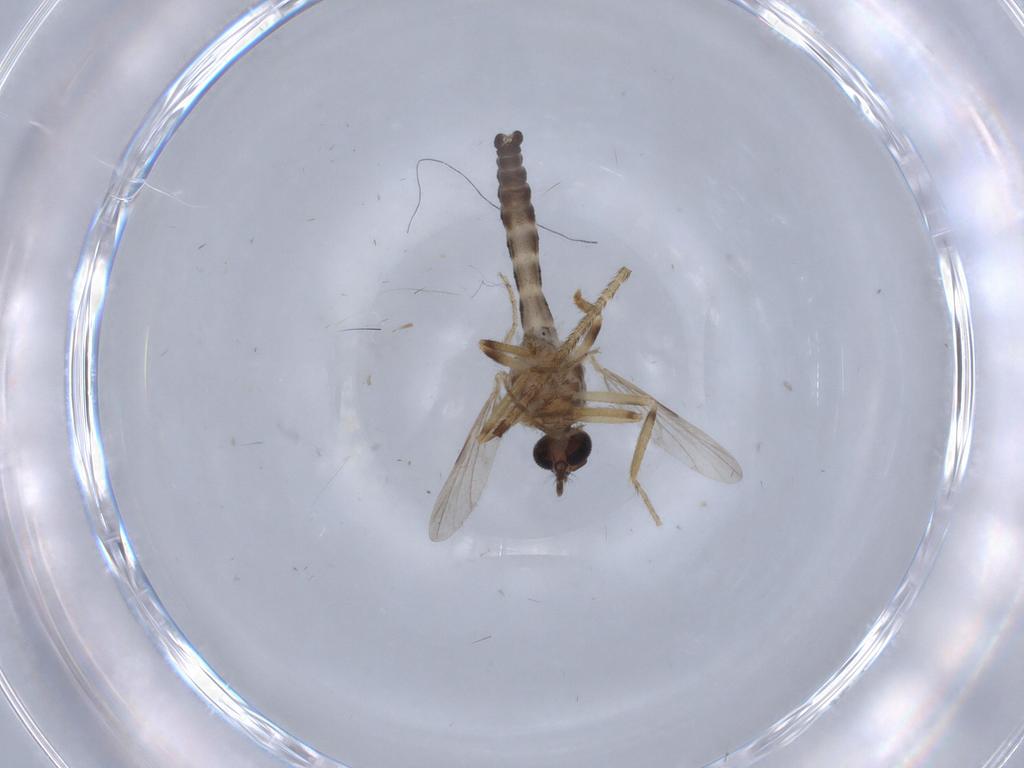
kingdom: Animalia
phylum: Arthropoda
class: Insecta
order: Diptera
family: Ceratopogonidae
